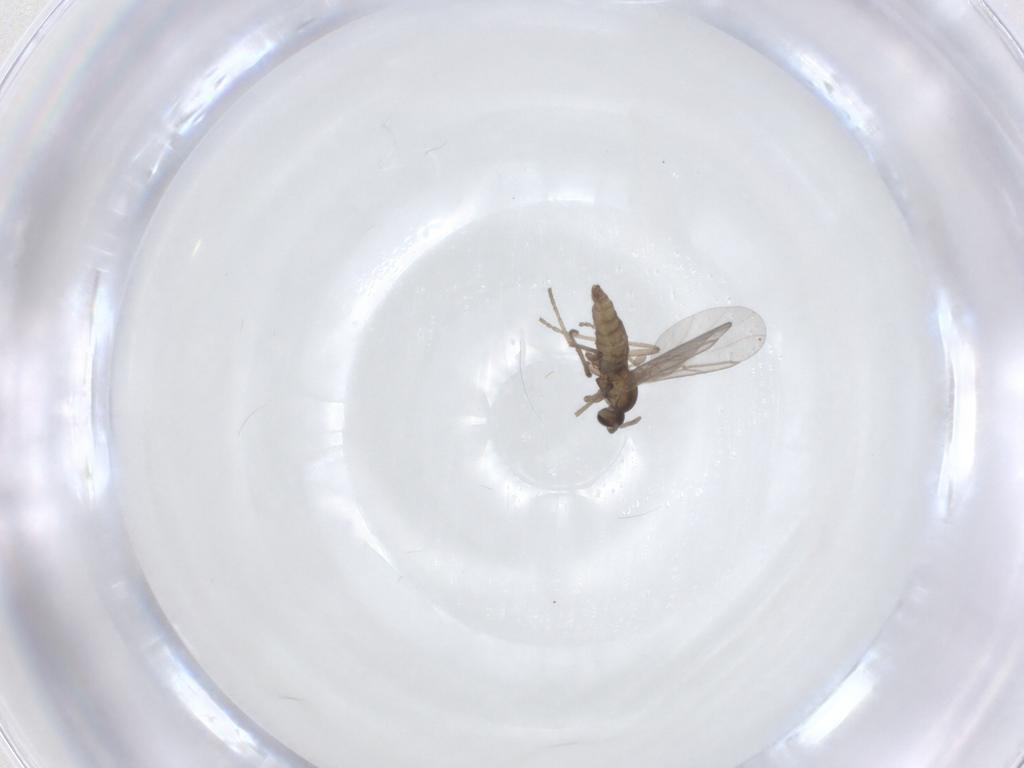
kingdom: Animalia
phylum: Arthropoda
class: Insecta
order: Diptera
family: Cecidomyiidae
